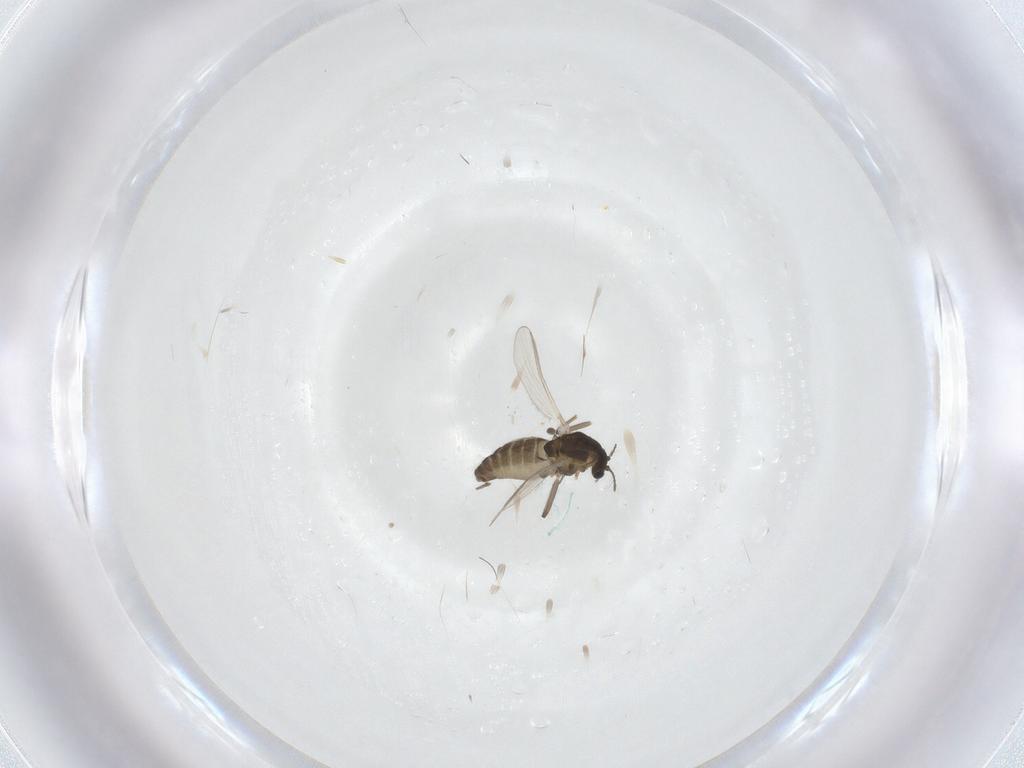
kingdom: Animalia
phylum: Arthropoda
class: Insecta
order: Diptera
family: Chironomidae
